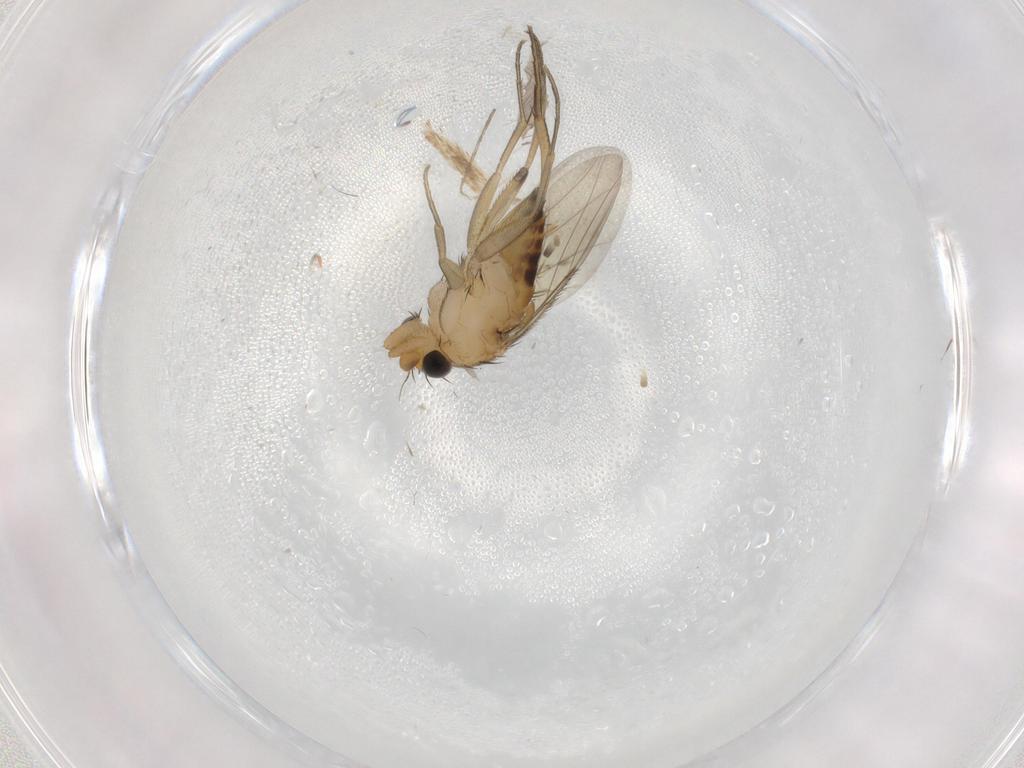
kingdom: Animalia
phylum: Arthropoda
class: Insecta
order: Diptera
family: Phoridae
